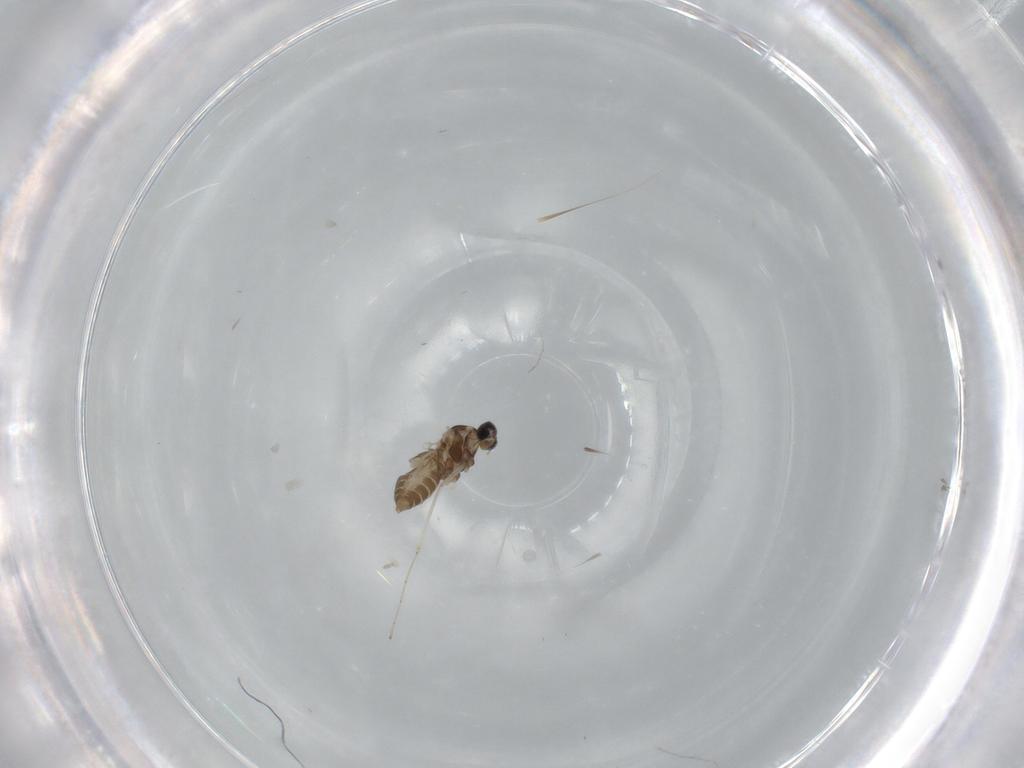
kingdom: Animalia
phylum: Arthropoda
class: Insecta
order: Diptera
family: Cecidomyiidae
